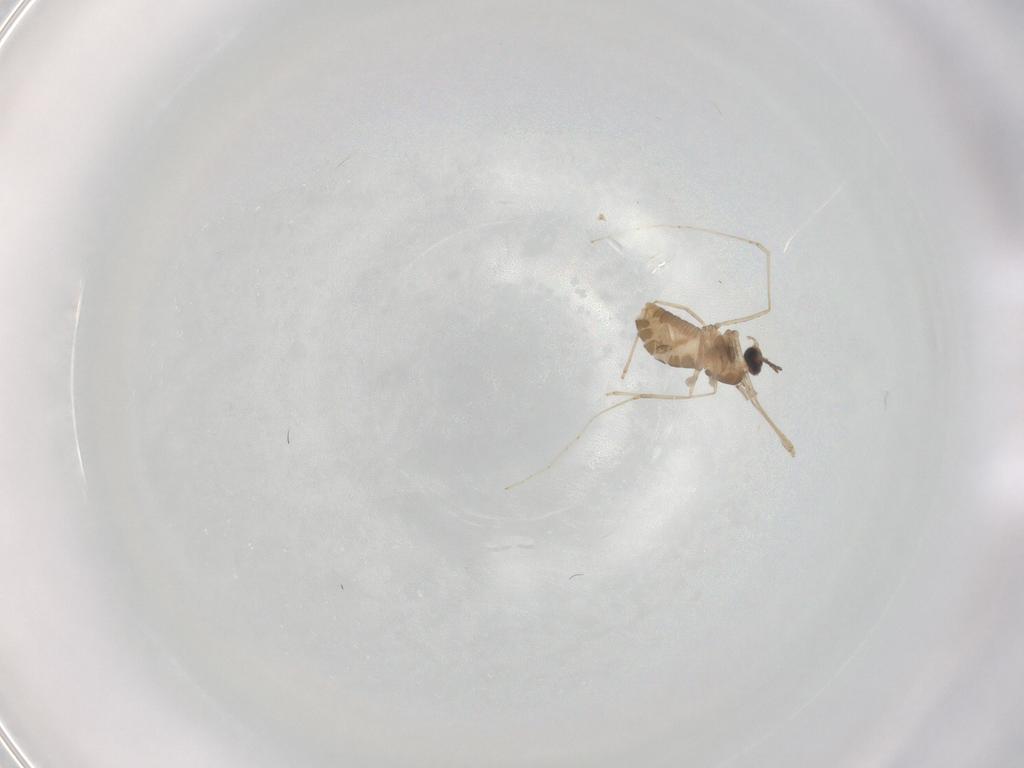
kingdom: Animalia
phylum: Arthropoda
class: Insecta
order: Diptera
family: Cecidomyiidae
